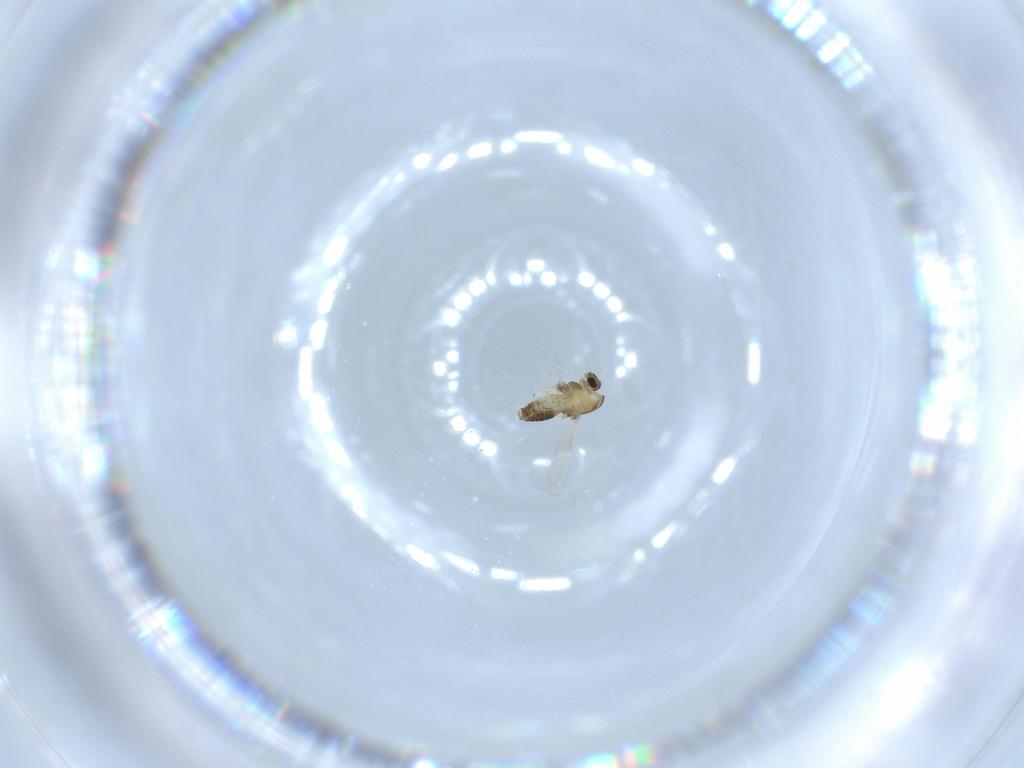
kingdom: Animalia
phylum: Arthropoda
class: Insecta
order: Diptera
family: Chironomidae
